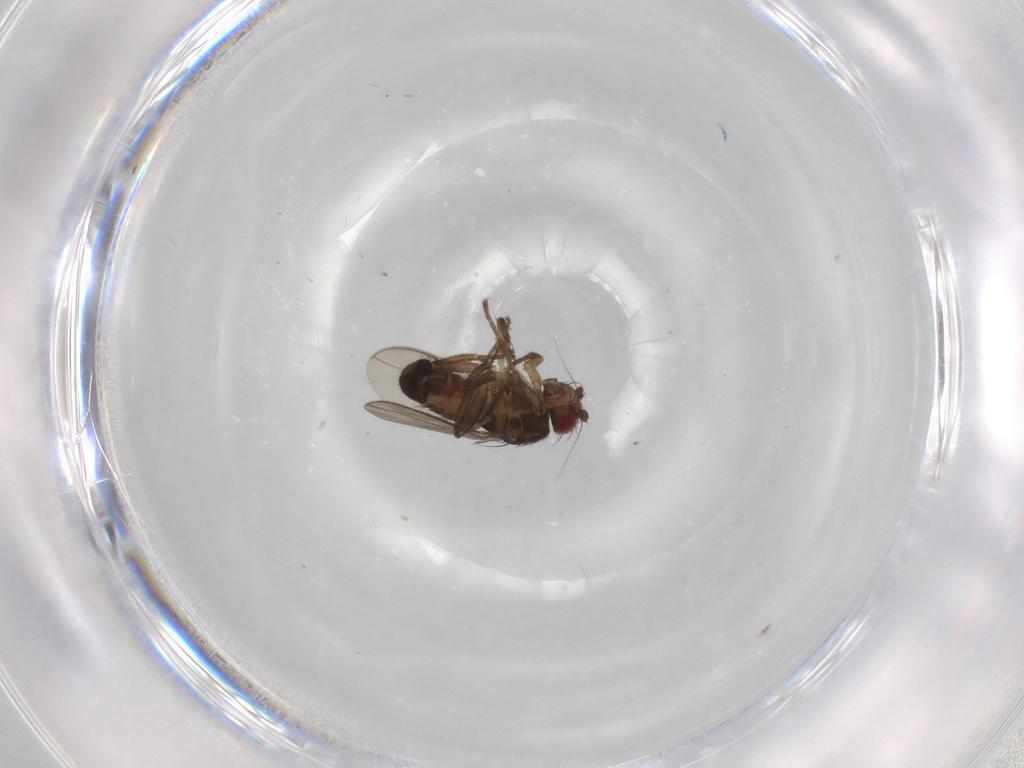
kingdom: Animalia
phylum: Arthropoda
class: Insecta
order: Diptera
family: Sphaeroceridae
